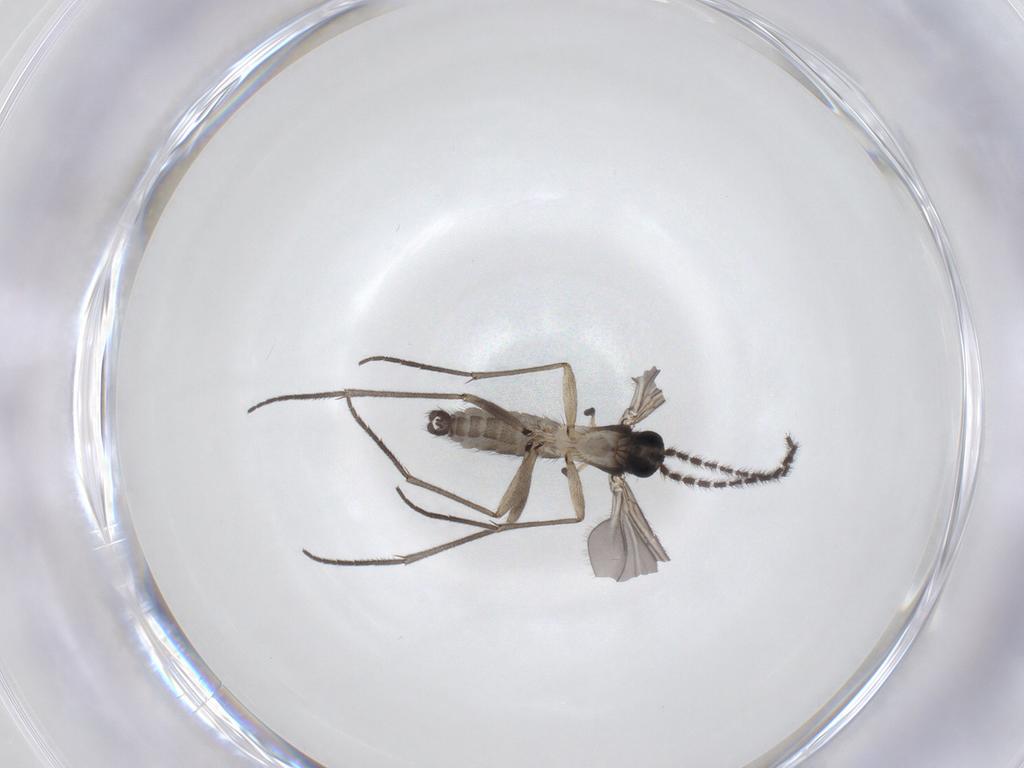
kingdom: Animalia
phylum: Arthropoda
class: Insecta
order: Diptera
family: Phoridae
